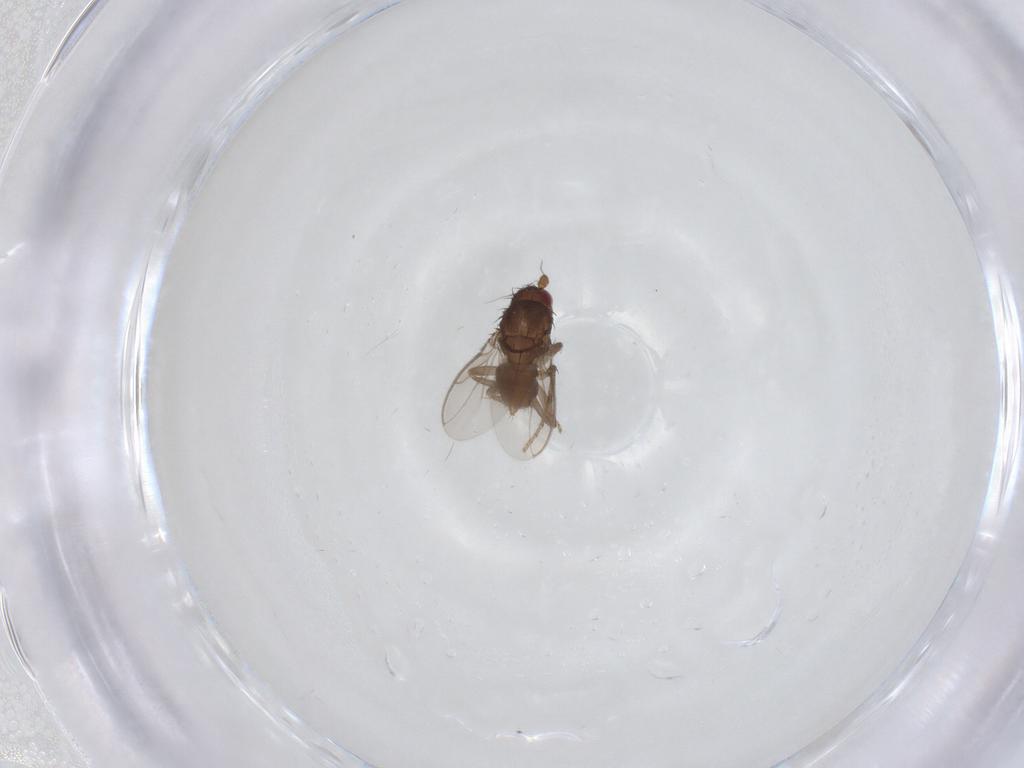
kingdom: Animalia
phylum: Arthropoda
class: Insecta
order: Diptera
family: Sphaeroceridae
